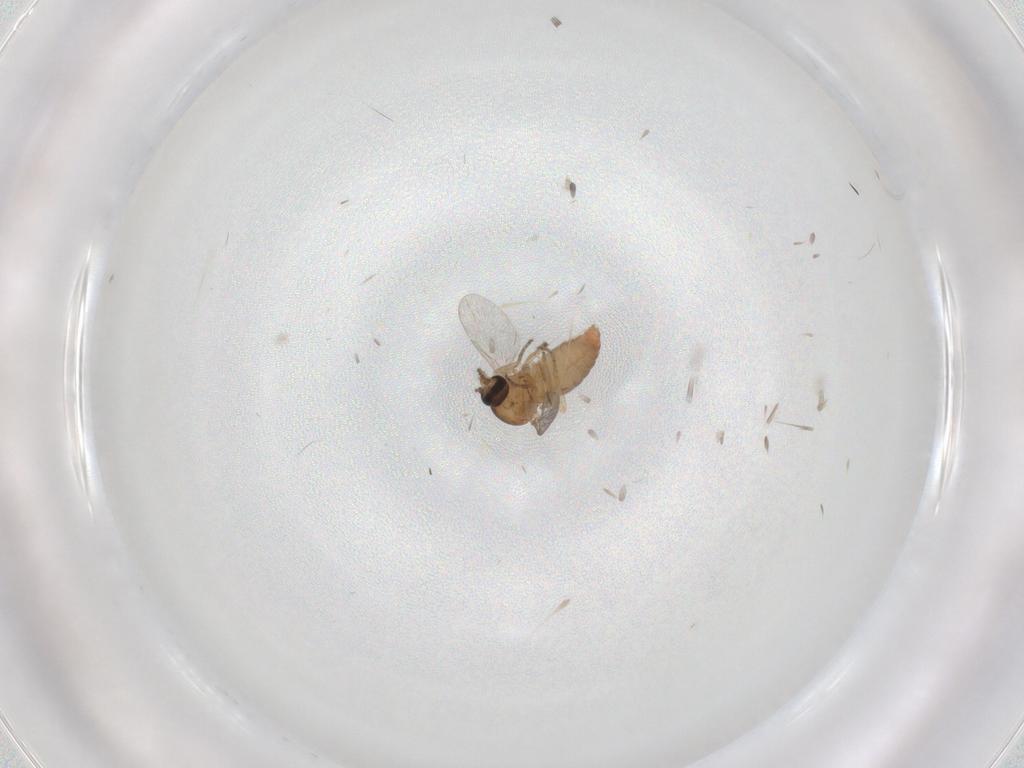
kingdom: Animalia
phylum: Arthropoda
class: Insecta
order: Diptera
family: Ceratopogonidae
